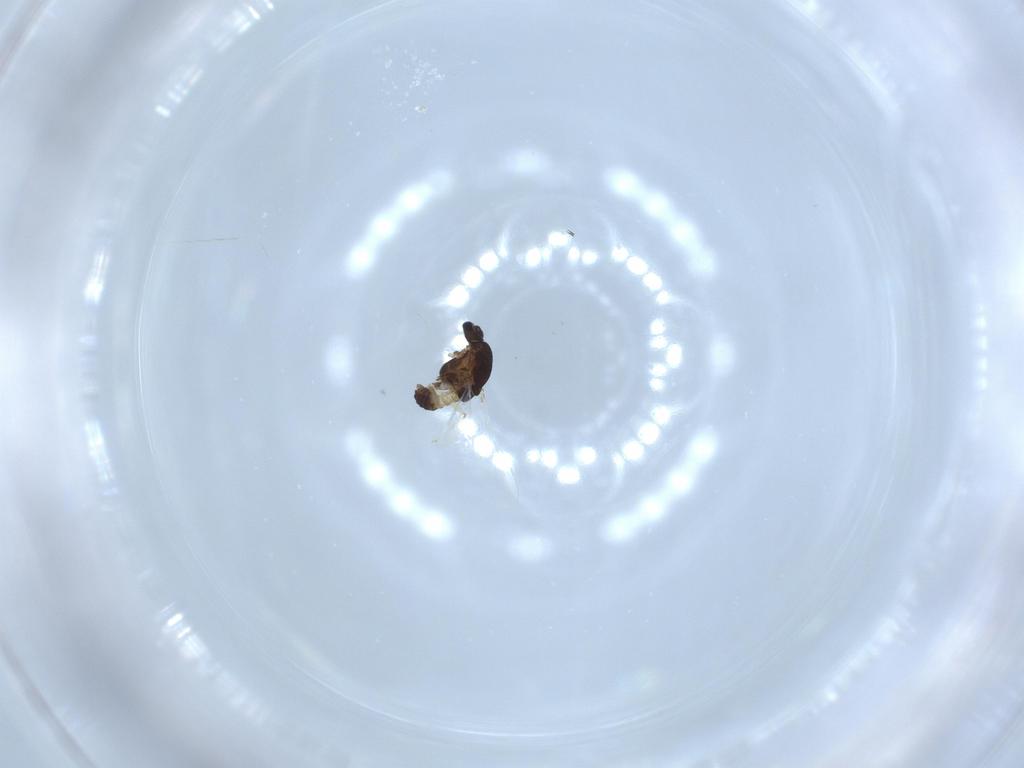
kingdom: Animalia
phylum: Arthropoda
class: Insecta
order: Diptera
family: Chironomidae
